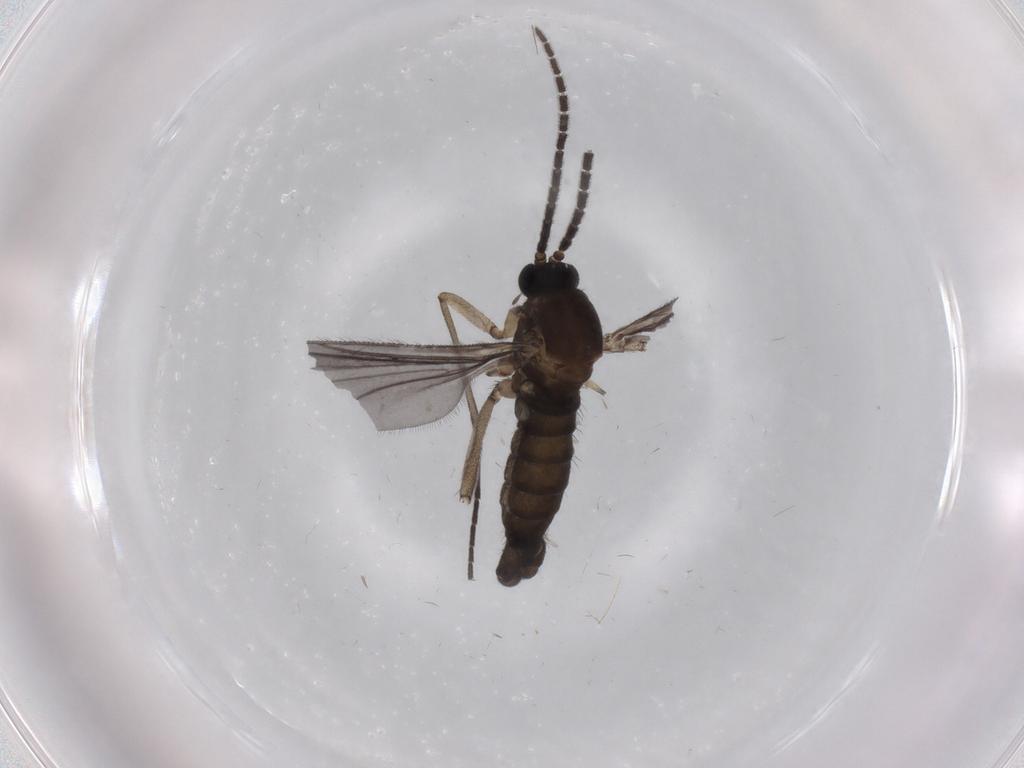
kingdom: Animalia
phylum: Arthropoda
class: Insecta
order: Diptera
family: Sciaridae
